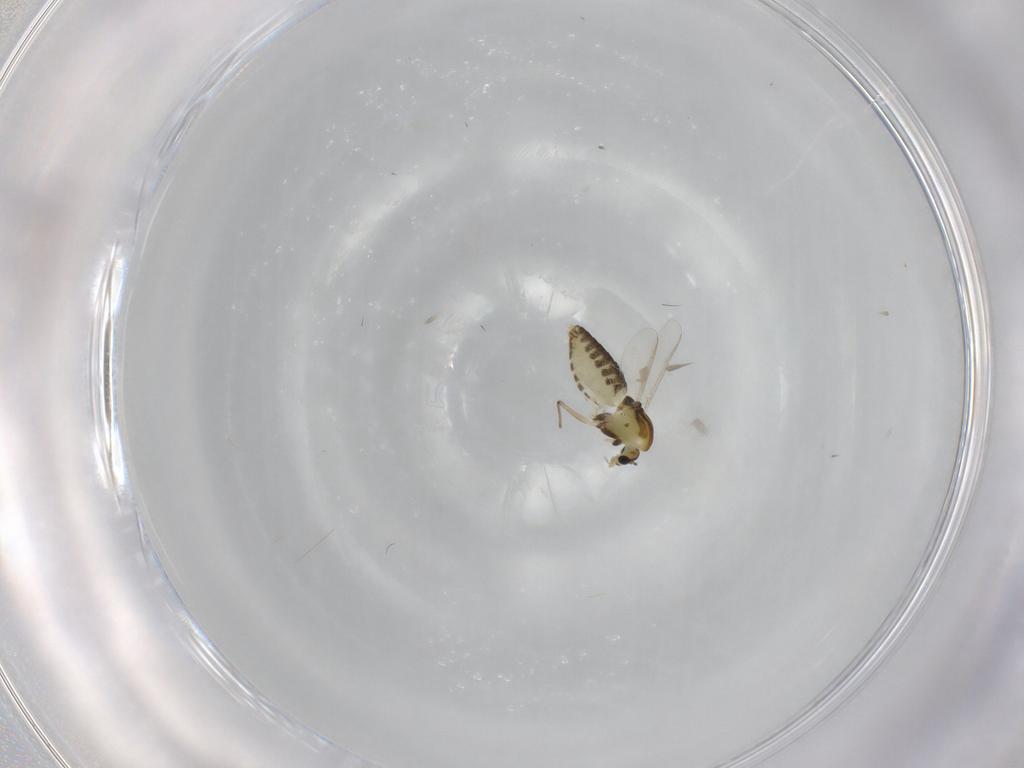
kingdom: Animalia
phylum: Arthropoda
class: Insecta
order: Diptera
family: Chironomidae
